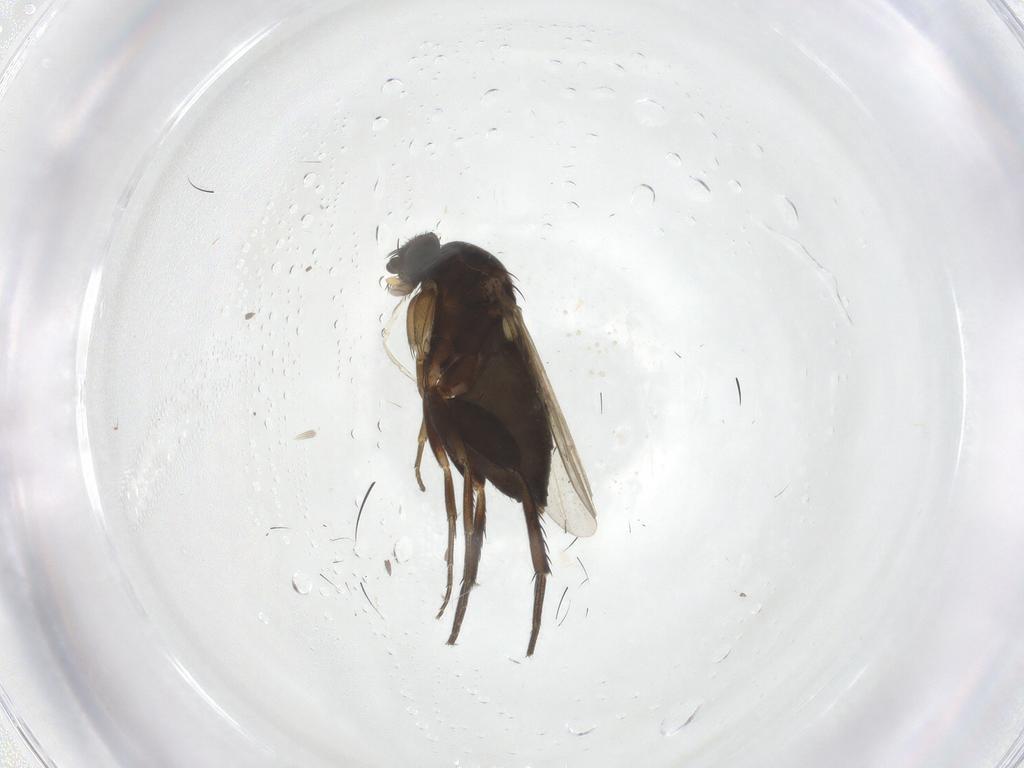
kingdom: Animalia
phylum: Arthropoda
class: Insecta
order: Diptera
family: Phoridae
